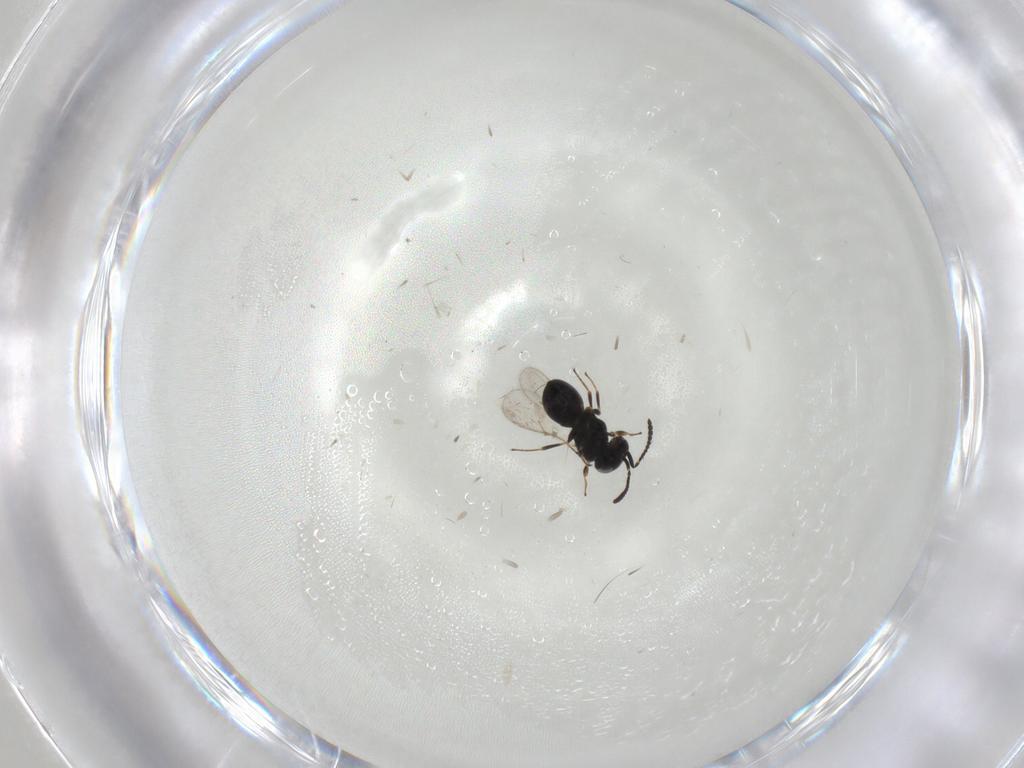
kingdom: Animalia
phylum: Arthropoda
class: Insecta
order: Hymenoptera
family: Scelionidae
